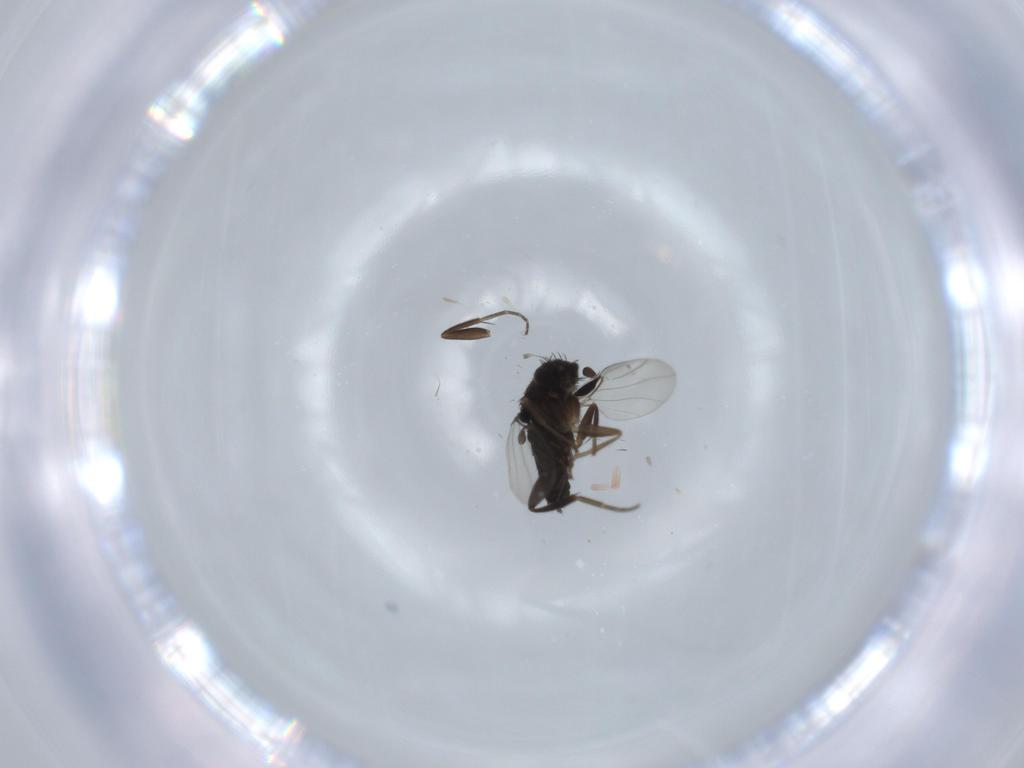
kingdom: Animalia
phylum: Arthropoda
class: Insecta
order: Diptera
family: Phoridae
